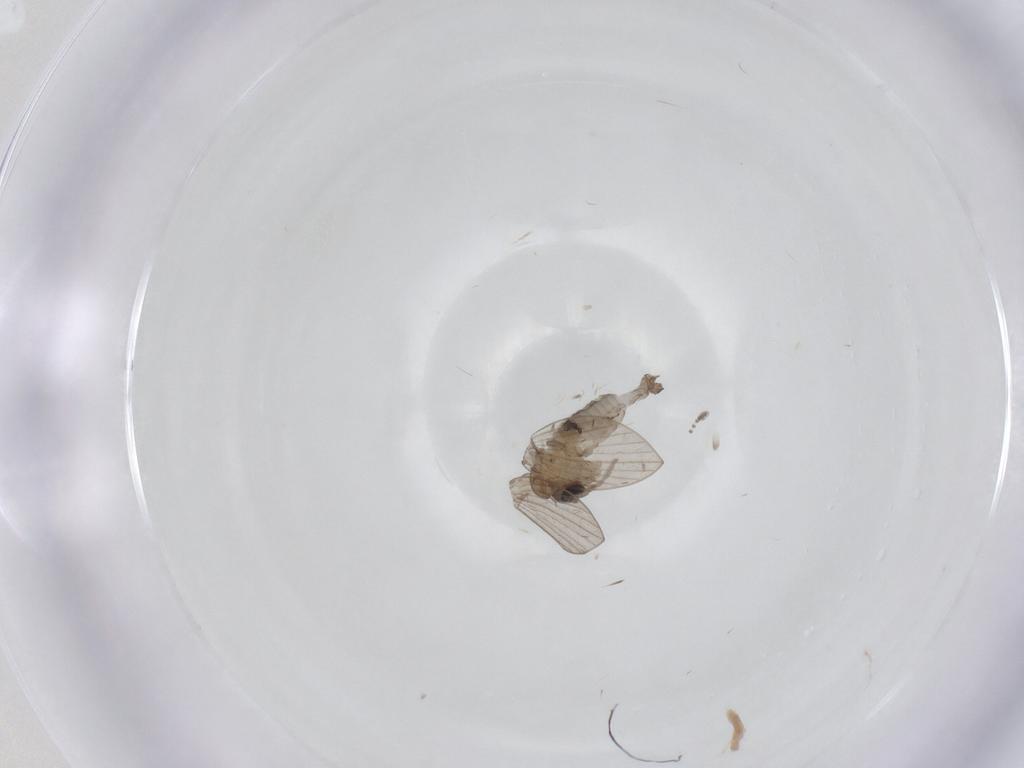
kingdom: Animalia
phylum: Arthropoda
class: Insecta
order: Diptera
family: Psychodidae
